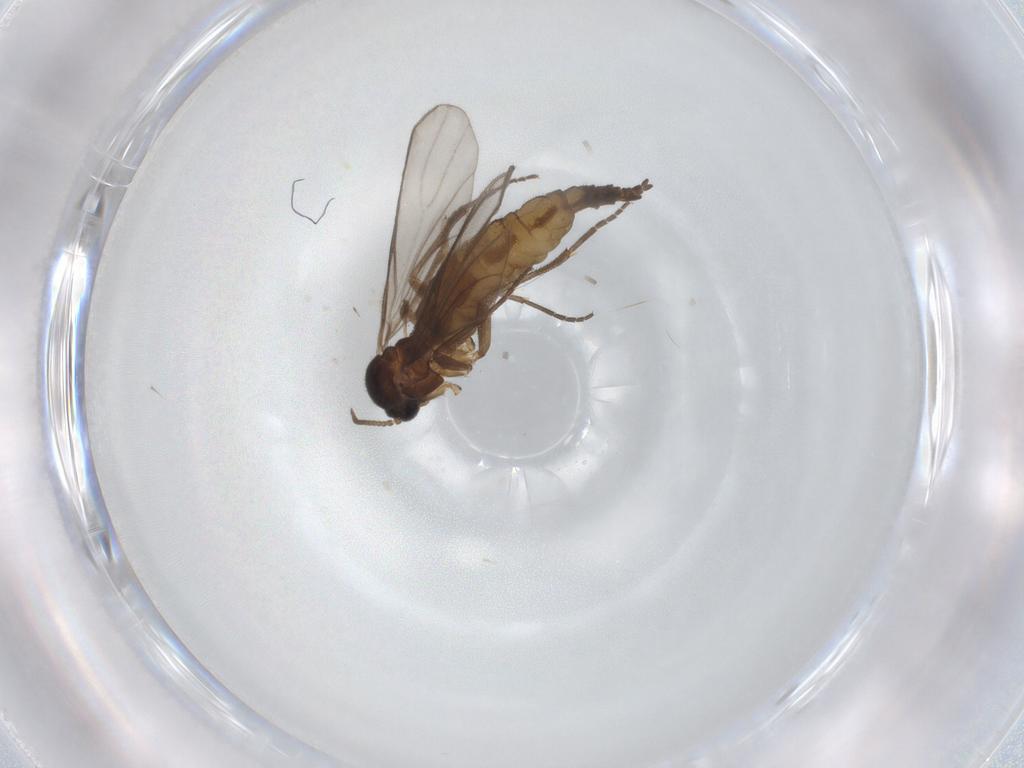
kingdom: Animalia
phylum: Arthropoda
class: Insecta
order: Diptera
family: Sciaridae
